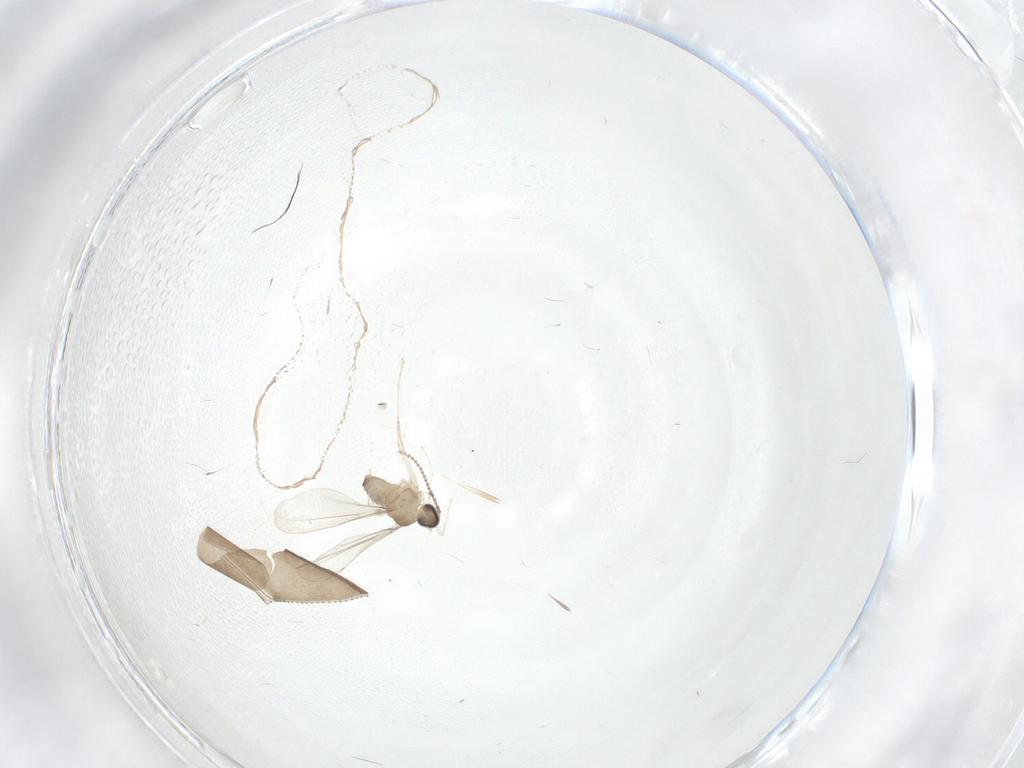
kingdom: Animalia
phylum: Arthropoda
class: Insecta
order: Diptera
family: Cecidomyiidae
